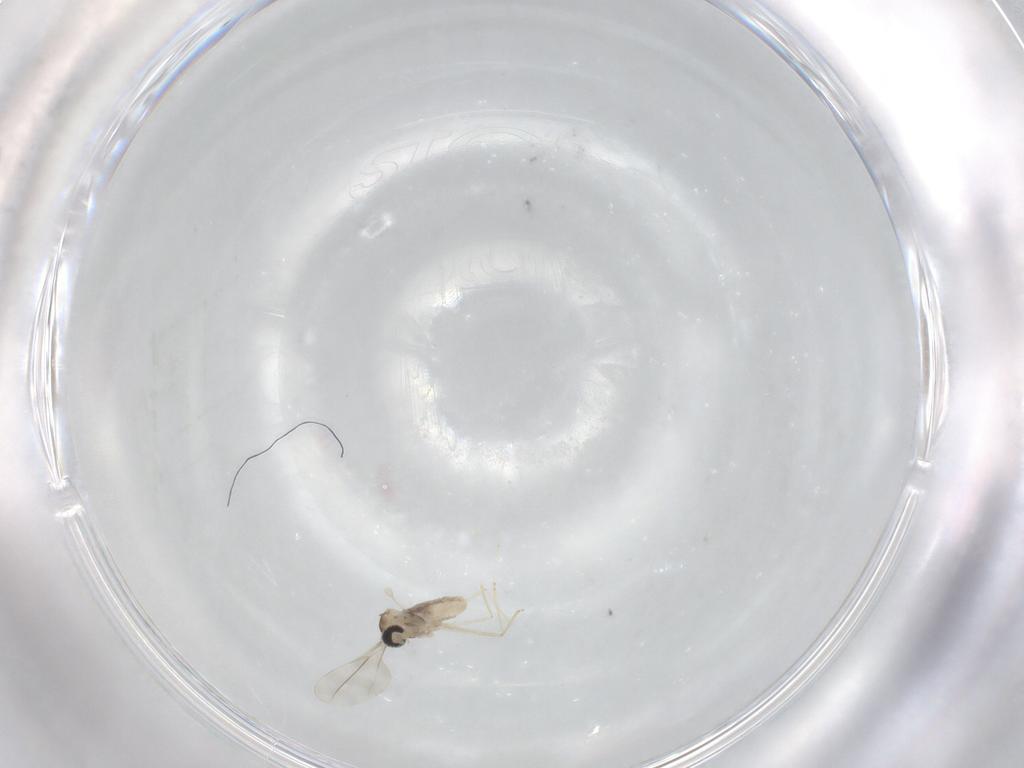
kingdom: Animalia
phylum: Arthropoda
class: Insecta
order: Diptera
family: Cecidomyiidae
